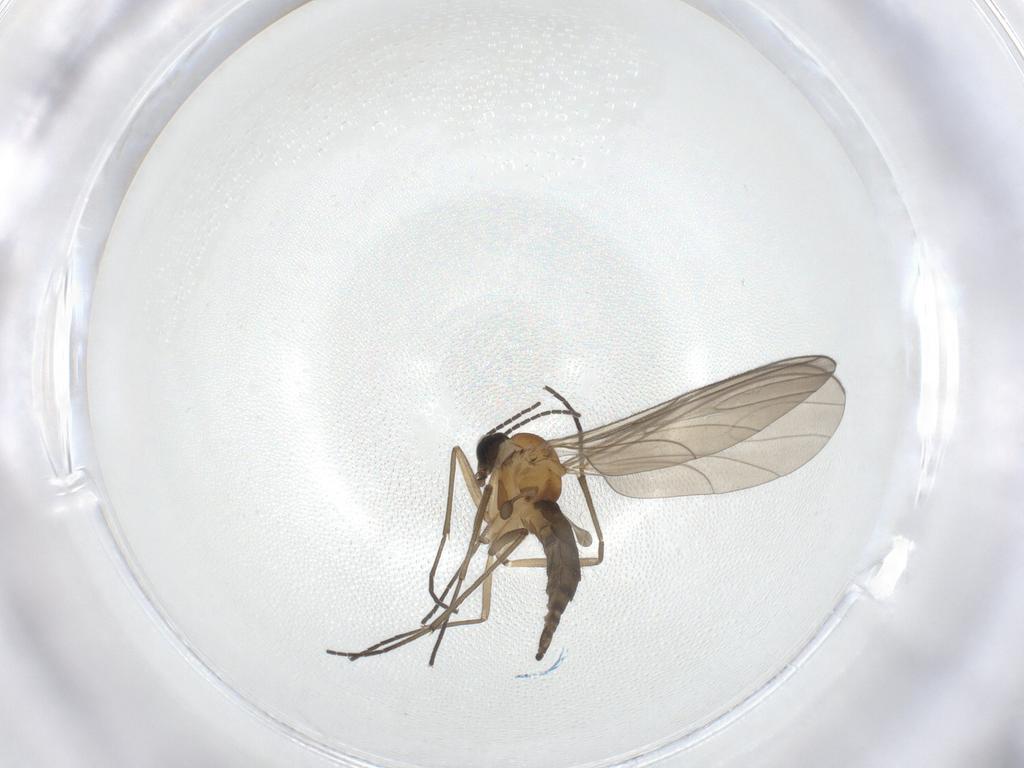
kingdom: Animalia
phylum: Arthropoda
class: Insecta
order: Diptera
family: Sciaridae
